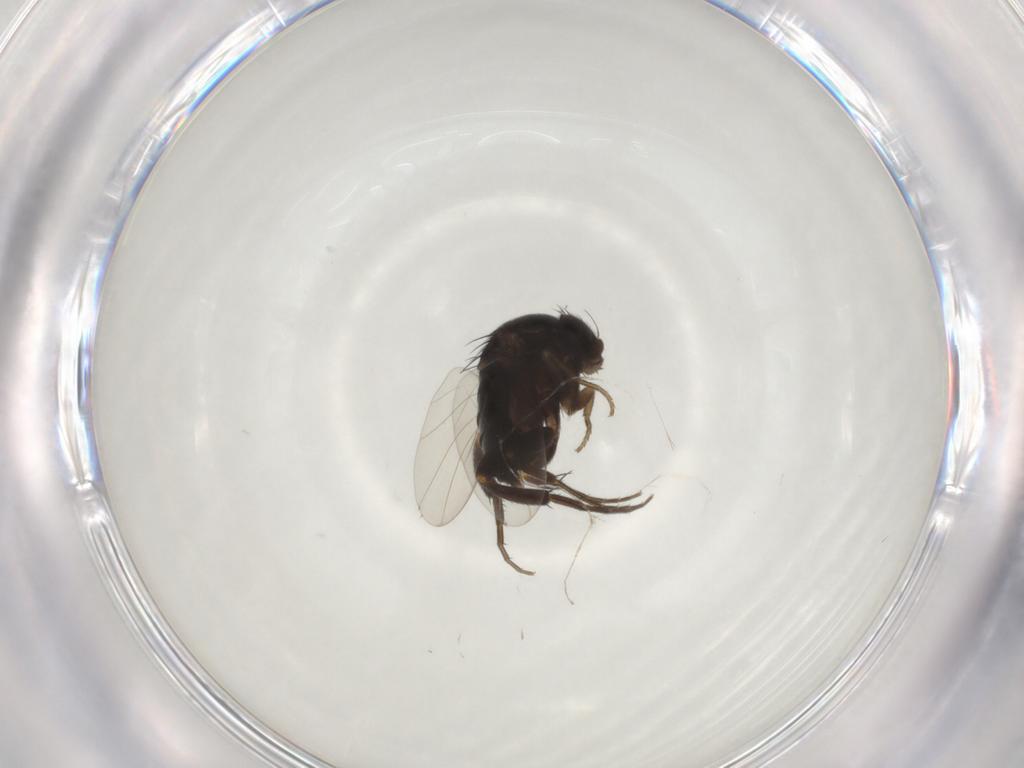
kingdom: Animalia
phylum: Arthropoda
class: Insecta
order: Diptera
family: Phoridae
